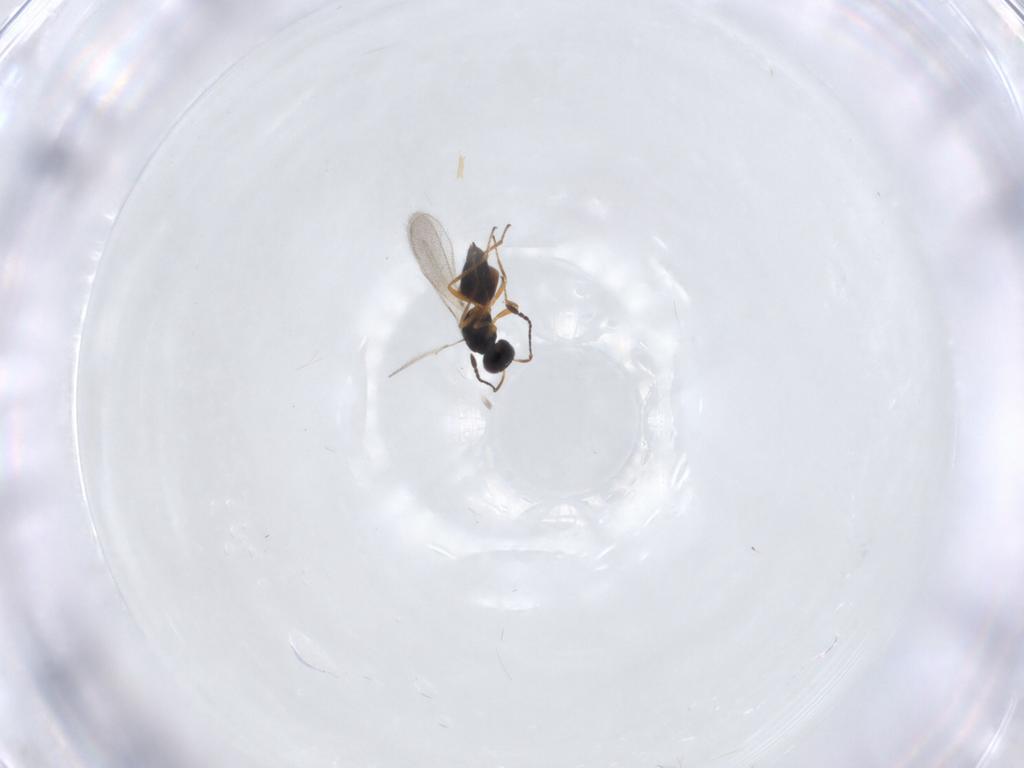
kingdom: Animalia
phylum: Arthropoda
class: Insecta
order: Hymenoptera
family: Mymaridae
